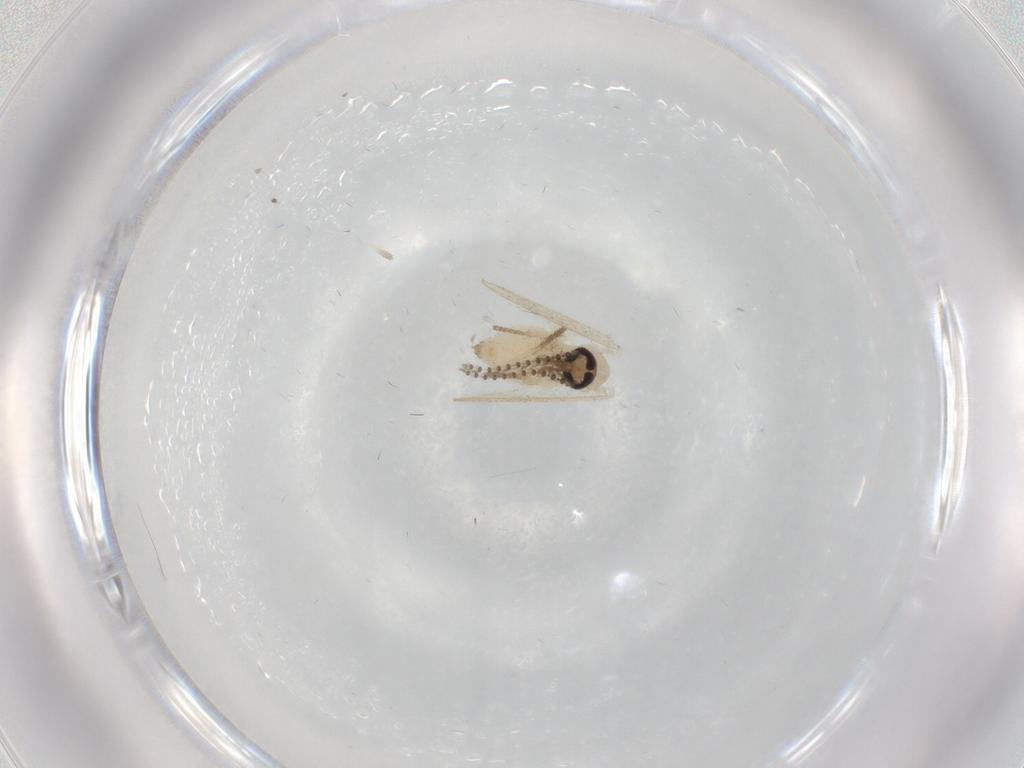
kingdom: Animalia
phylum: Arthropoda
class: Insecta
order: Diptera
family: Psychodidae
